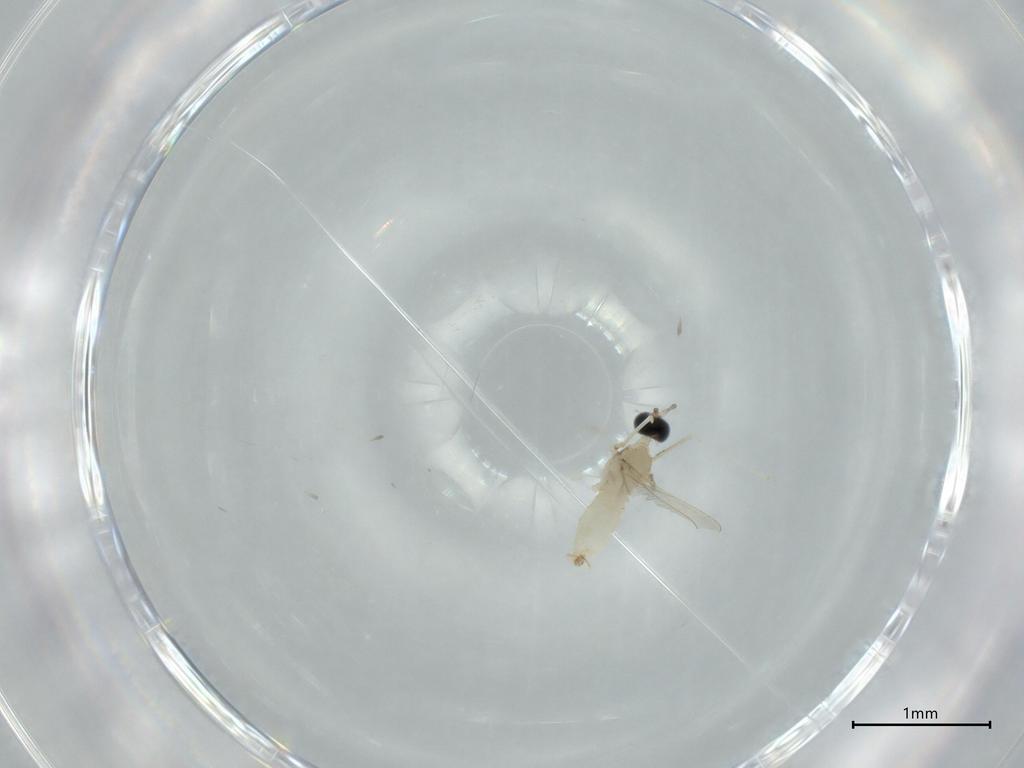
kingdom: Animalia
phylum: Arthropoda
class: Insecta
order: Diptera
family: Cecidomyiidae
